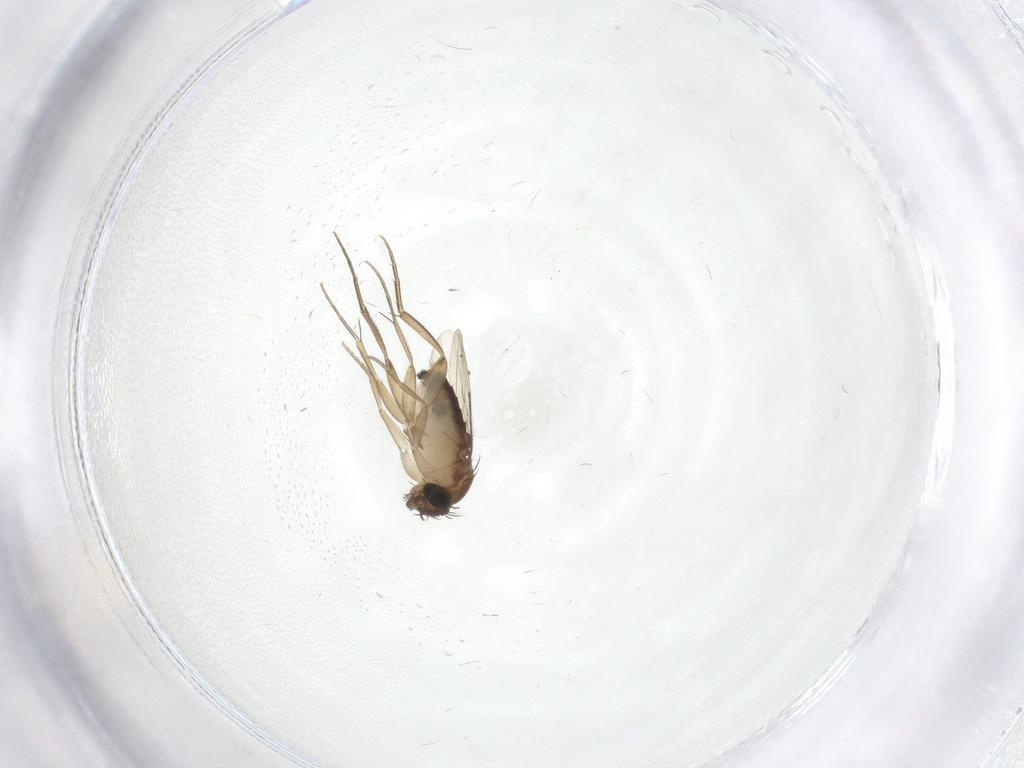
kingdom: Animalia
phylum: Arthropoda
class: Insecta
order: Diptera
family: Phoridae
